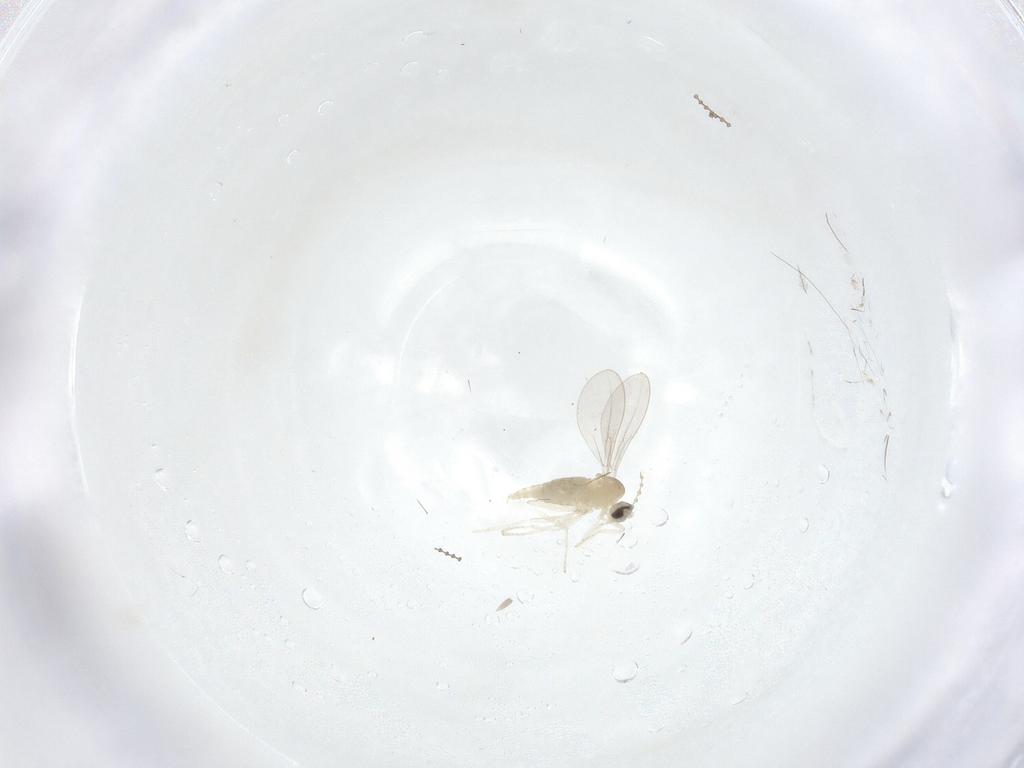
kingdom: Animalia
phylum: Arthropoda
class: Insecta
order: Diptera
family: Cecidomyiidae
